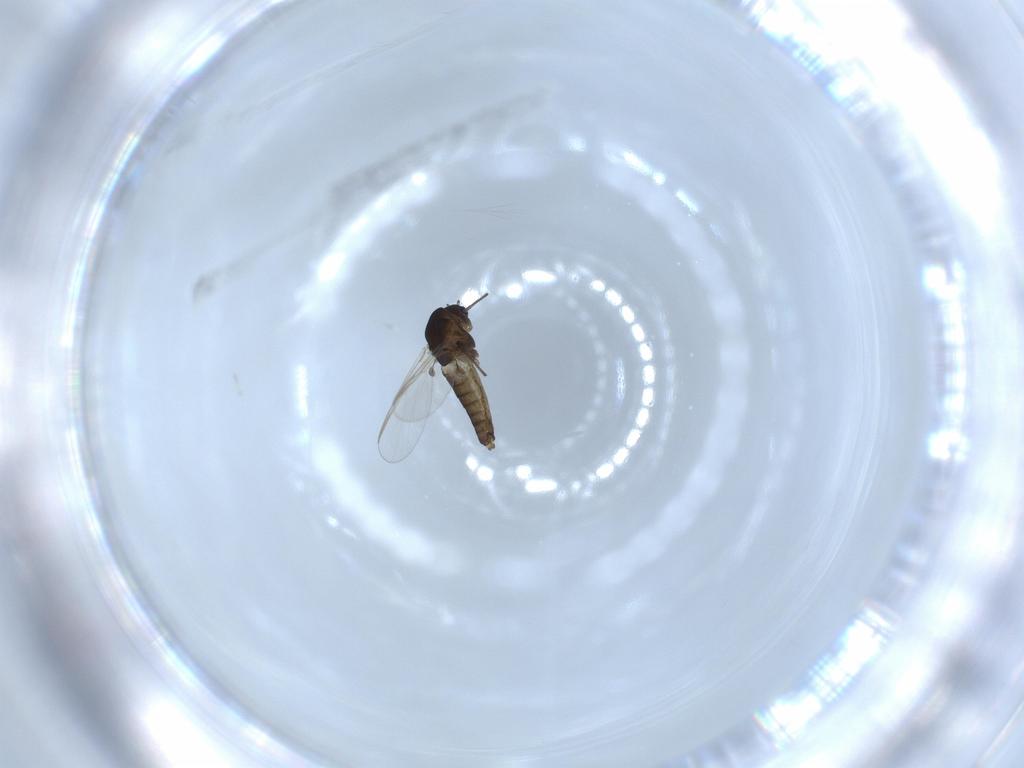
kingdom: Animalia
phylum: Arthropoda
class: Insecta
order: Diptera
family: Chironomidae
